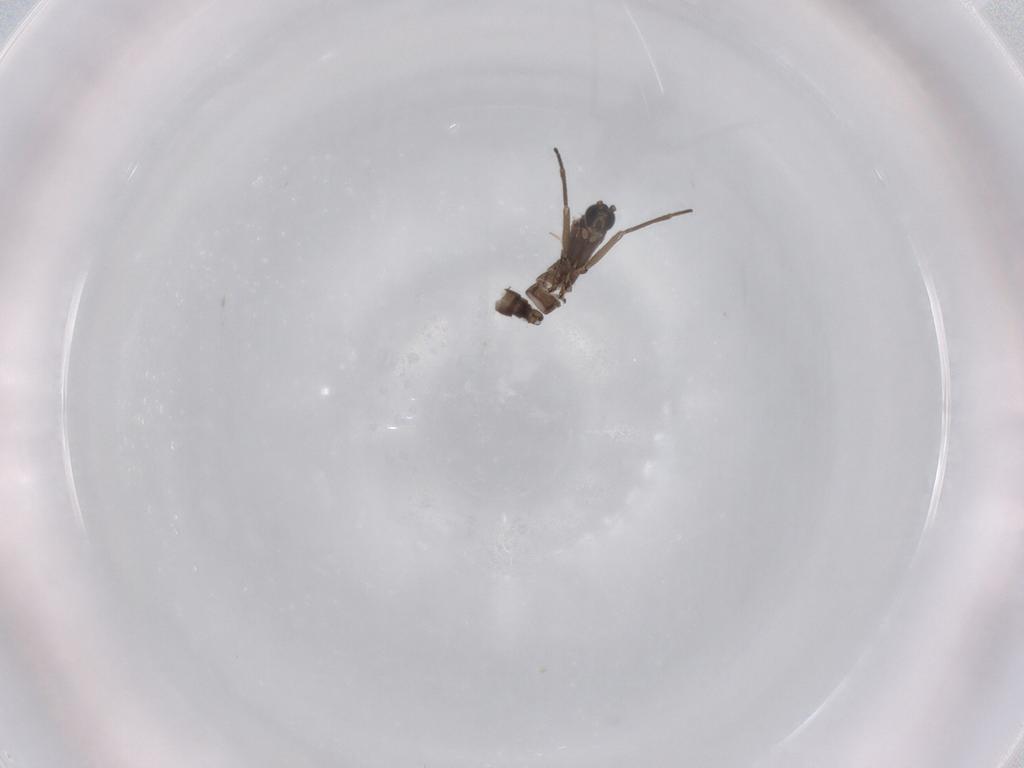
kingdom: Animalia
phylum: Arthropoda
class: Insecta
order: Diptera
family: Sciaridae
